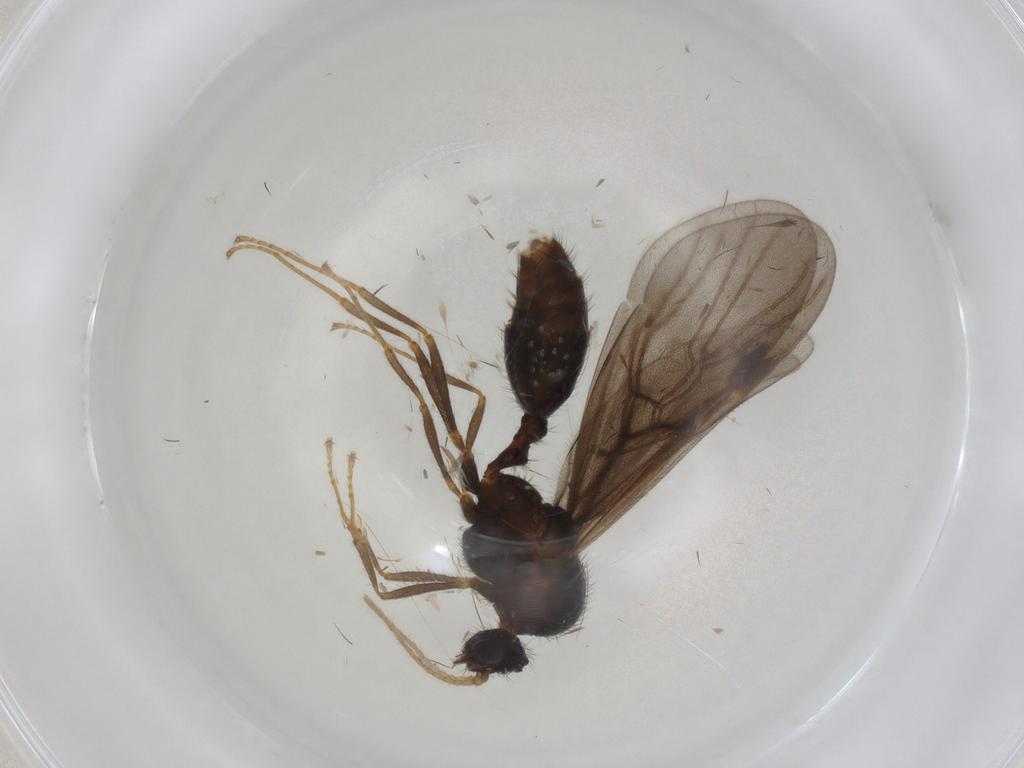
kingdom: Animalia
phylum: Arthropoda
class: Insecta
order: Hymenoptera
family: Formicidae
